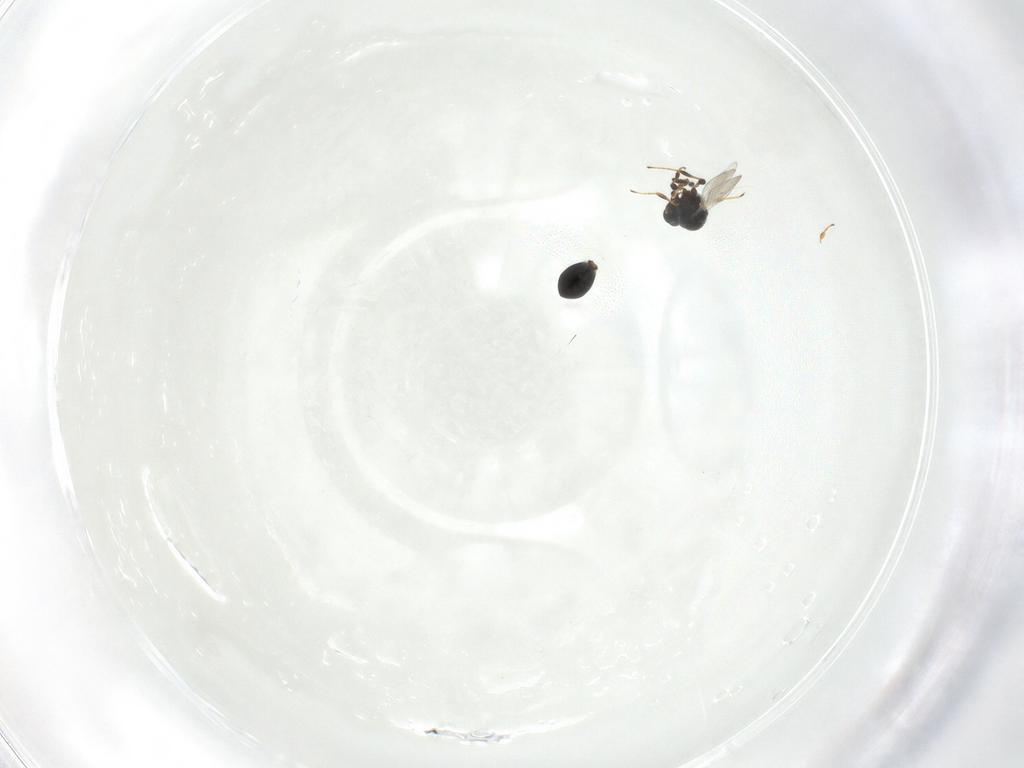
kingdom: Animalia
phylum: Arthropoda
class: Insecta
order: Hymenoptera
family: Platygastridae
